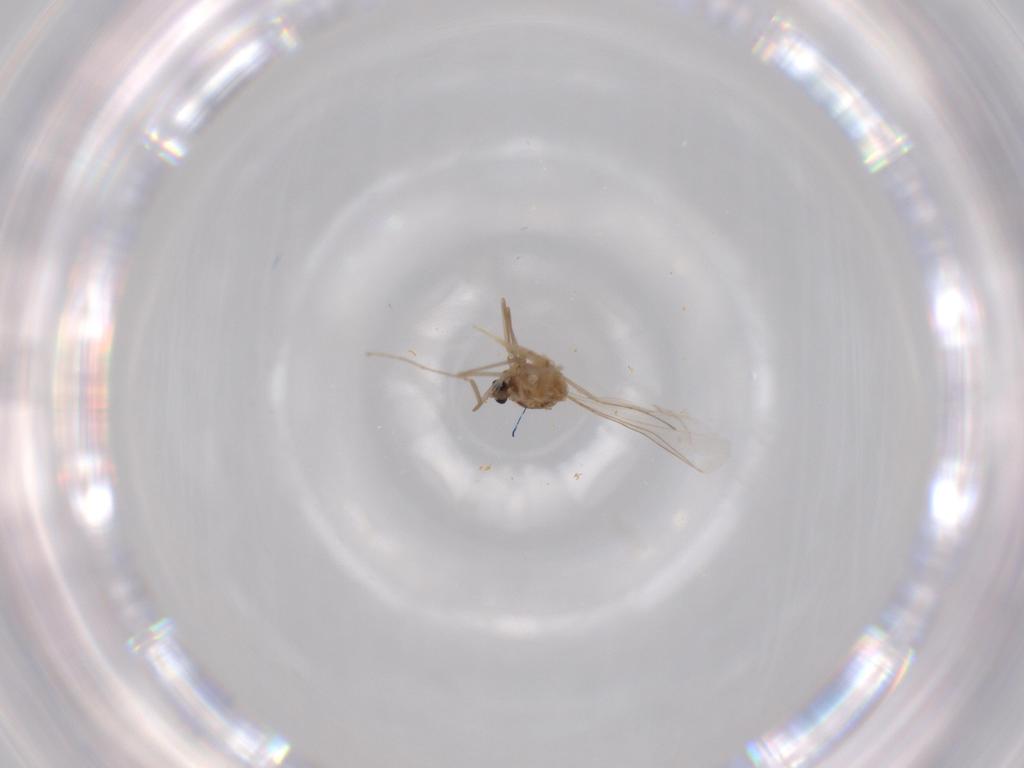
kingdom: Animalia
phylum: Arthropoda
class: Insecta
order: Diptera
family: Cecidomyiidae
